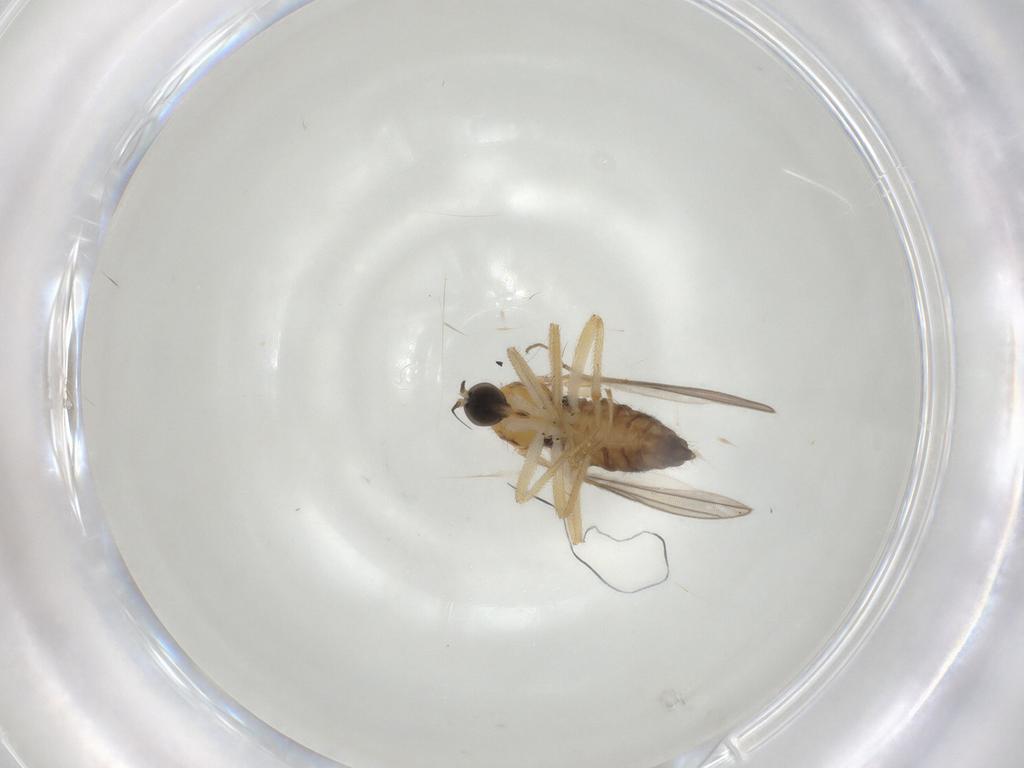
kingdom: Animalia
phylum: Arthropoda
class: Insecta
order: Diptera
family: Hybotidae
